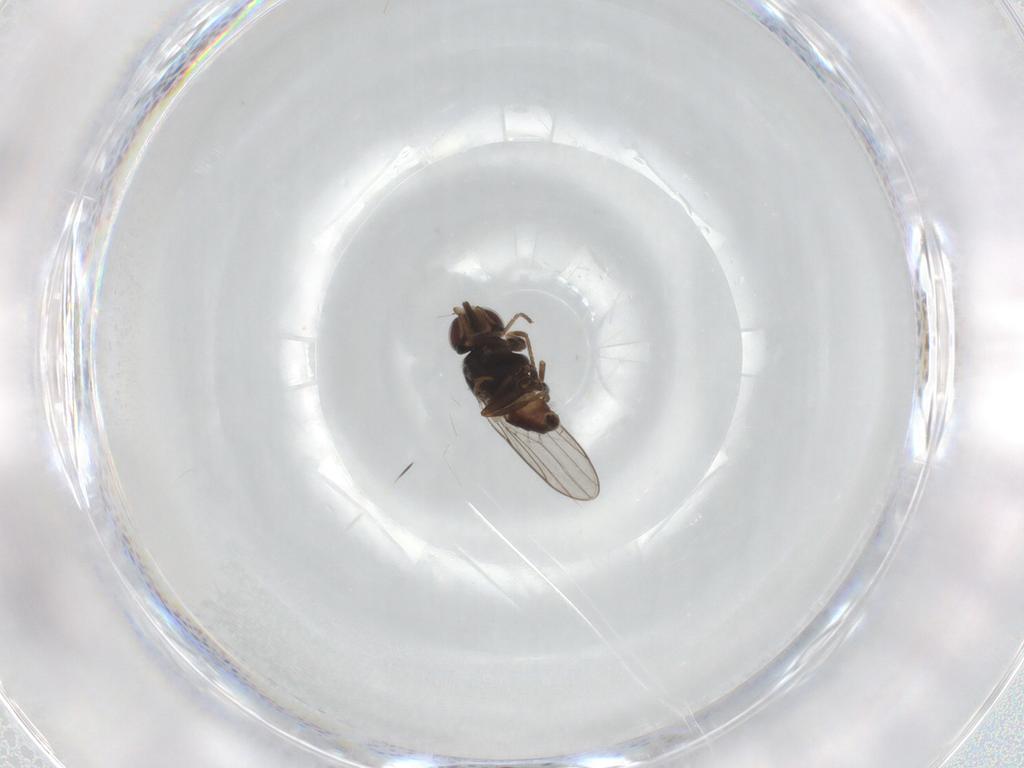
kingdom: Animalia
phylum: Arthropoda
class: Insecta
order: Diptera
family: Chloropidae
